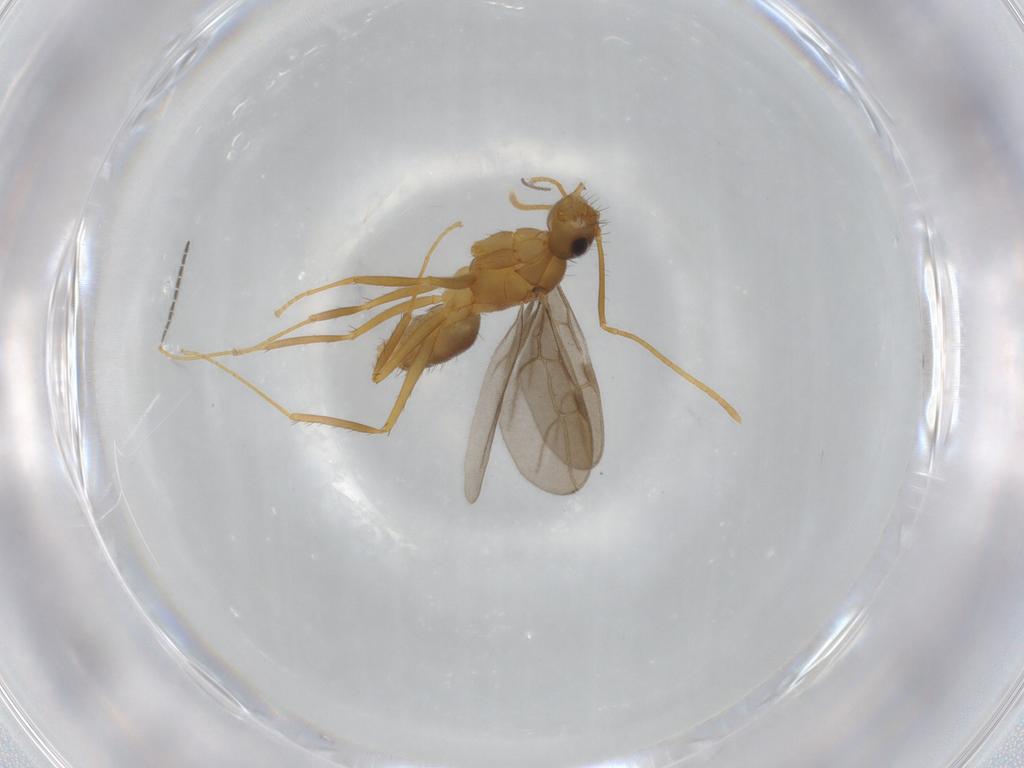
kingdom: Animalia
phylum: Arthropoda
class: Insecta
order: Hymenoptera
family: Formicidae
